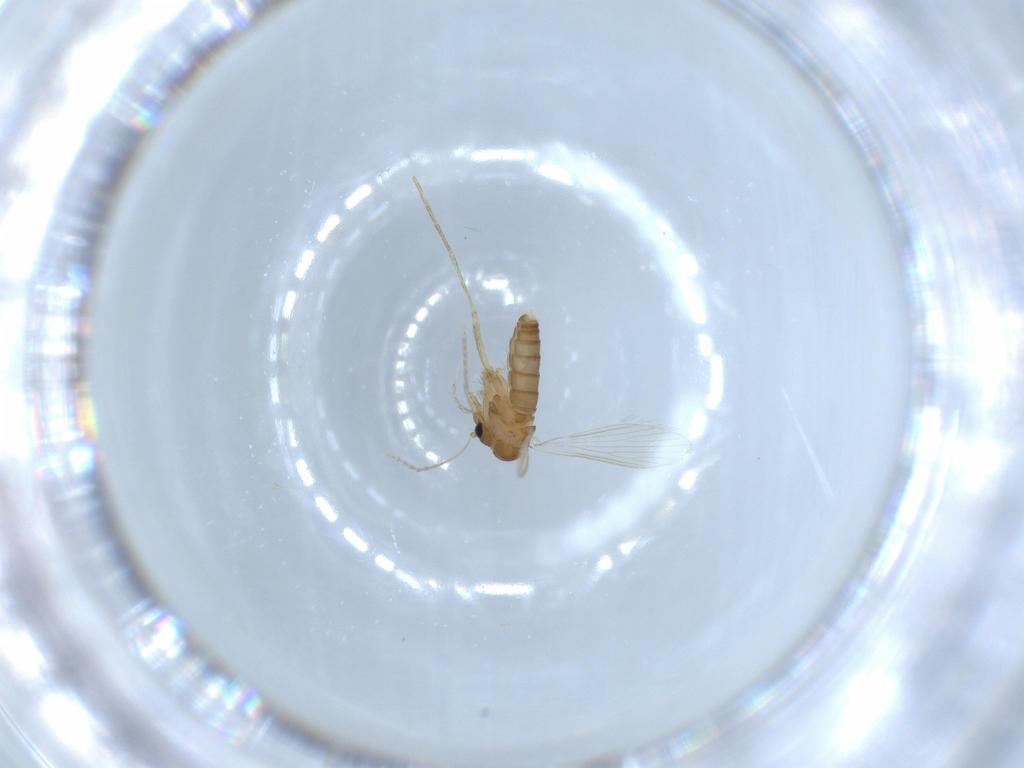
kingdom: Animalia
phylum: Arthropoda
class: Insecta
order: Diptera
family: Psychodidae
